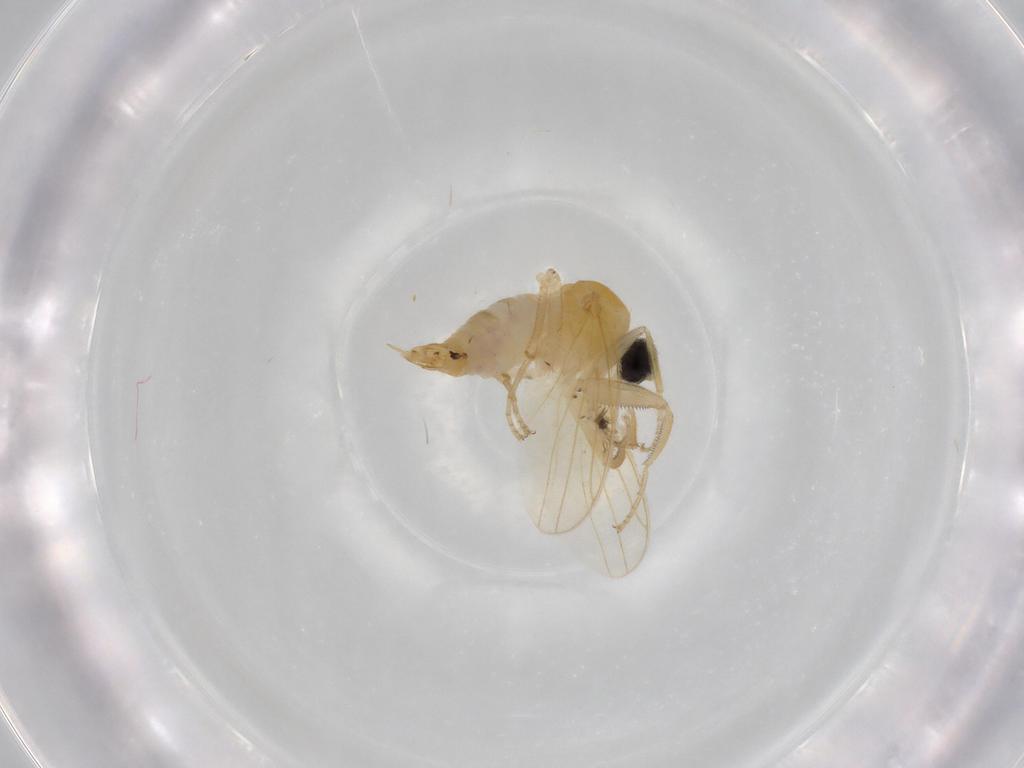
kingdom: Animalia
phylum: Arthropoda
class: Insecta
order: Diptera
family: Hybotidae
